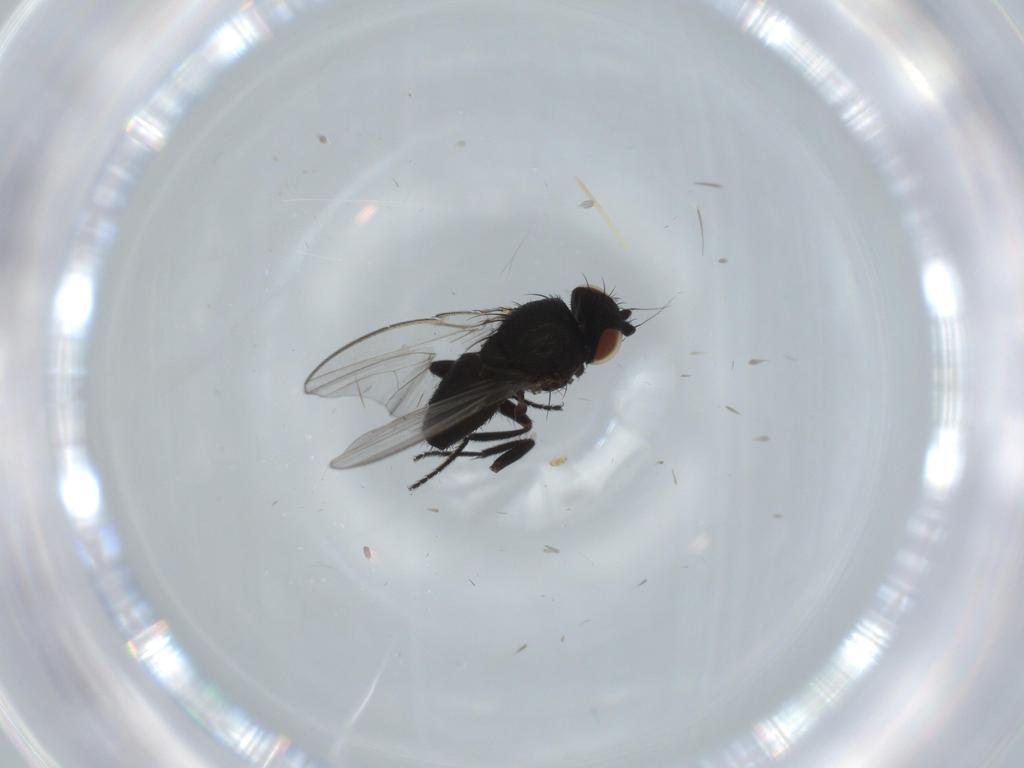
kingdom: Animalia
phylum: Arthropoda
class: Insecta
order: Diptera
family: Milichiidae
